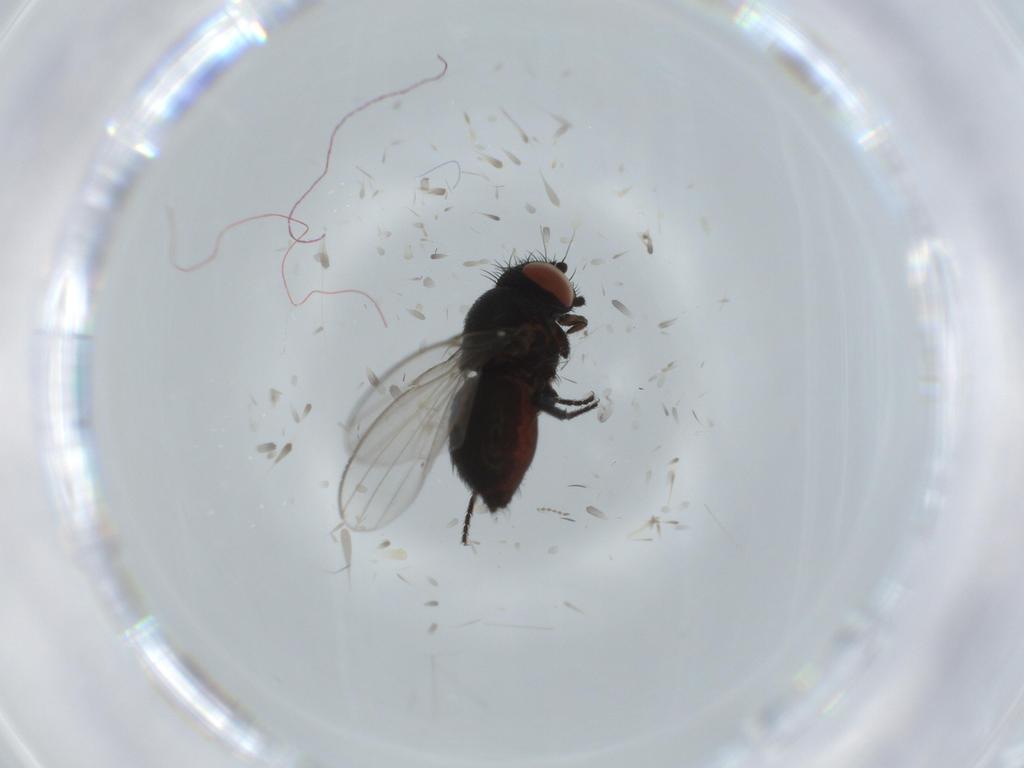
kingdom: Animalia
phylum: Arthropoda
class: Insecta
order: Diptera
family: Milichiidae
